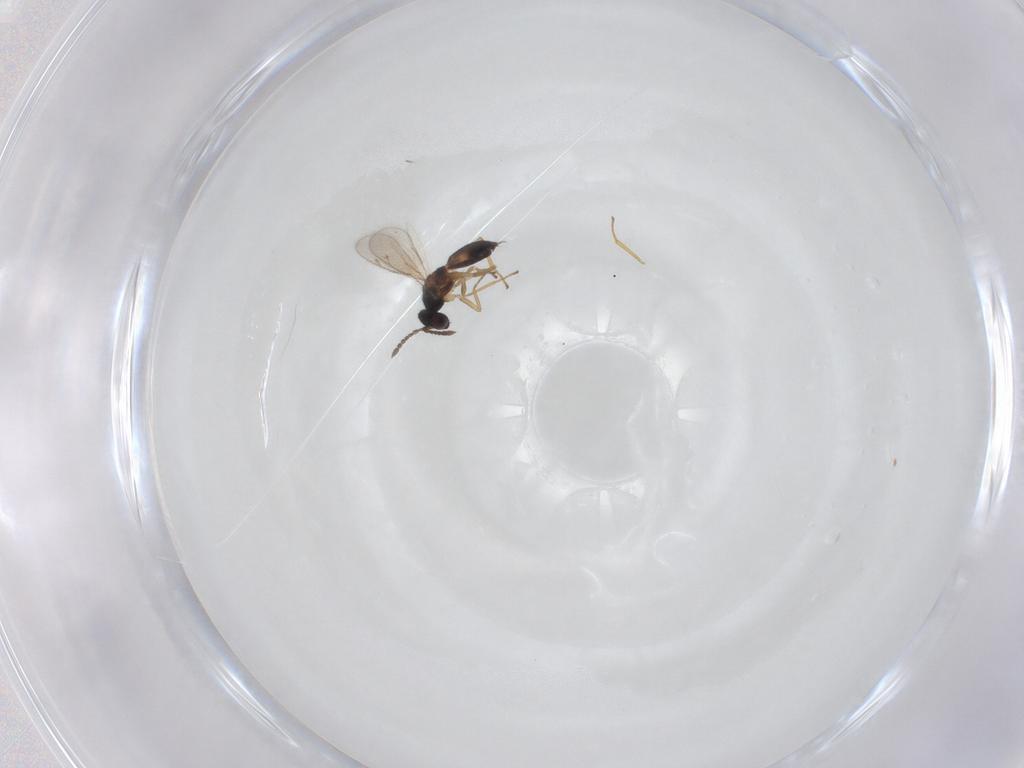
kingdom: Animalia
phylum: Arthropoda
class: Insecta
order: Hymenoptera
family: Eulophidae
